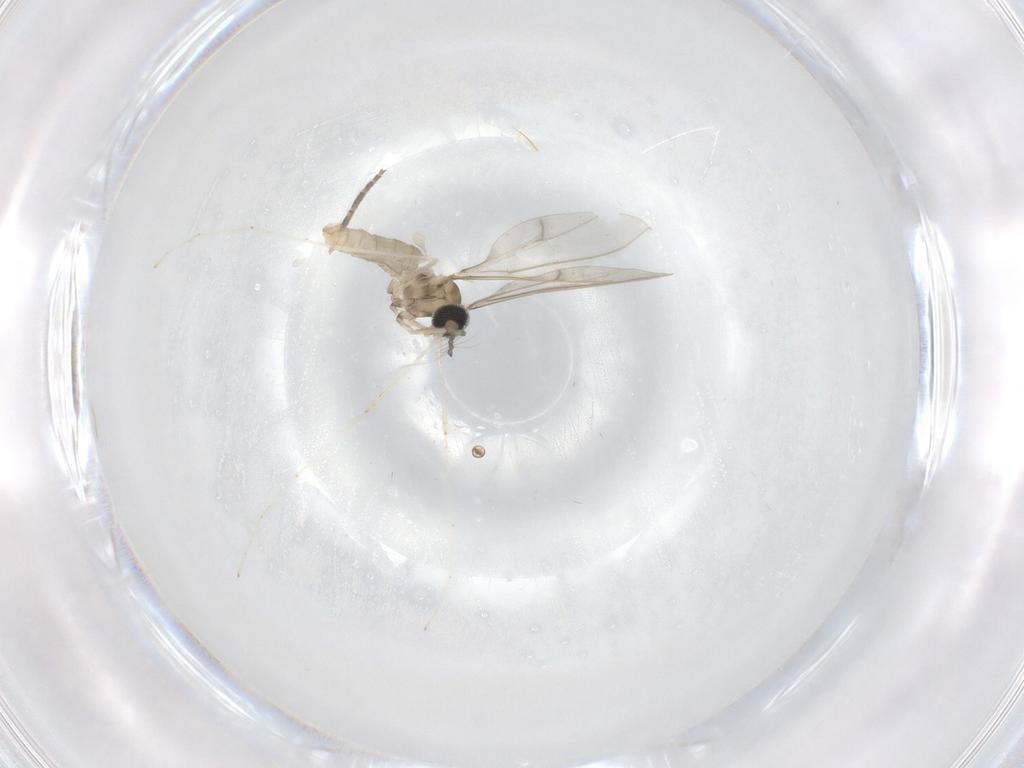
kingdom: Animalia
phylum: Arthropoda
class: Insecta
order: Diptera
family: Cecidomyiidae
